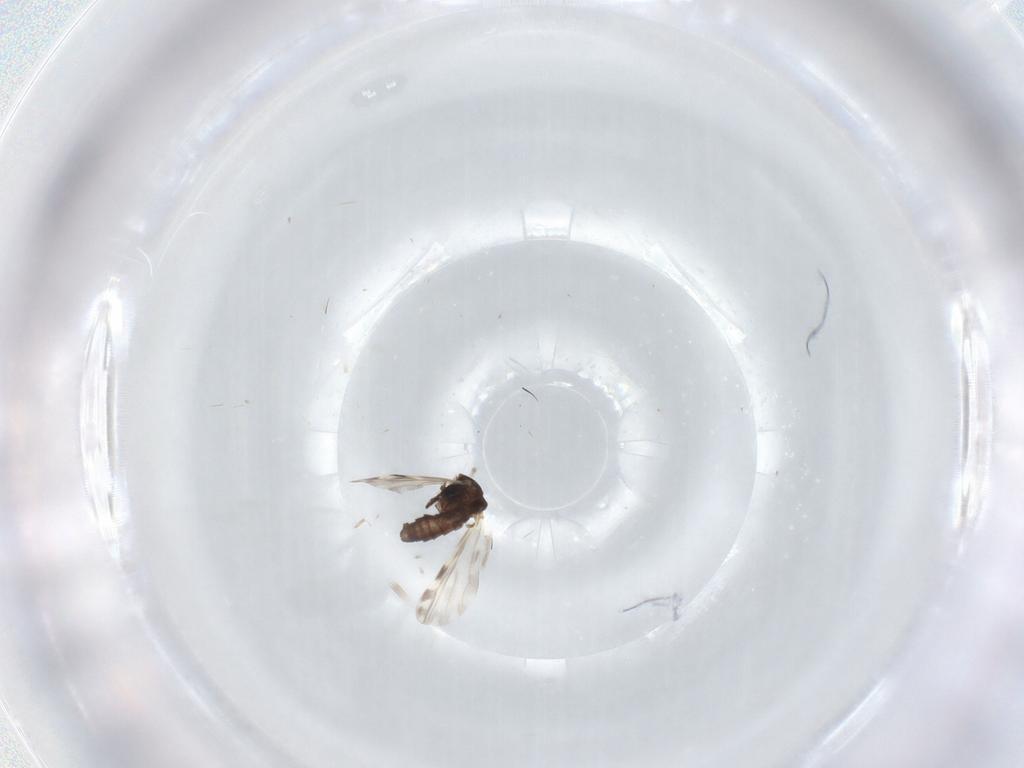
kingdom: Animalia
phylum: Arthropoda
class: Insecta
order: Diptera
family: Ceratopogonidae
